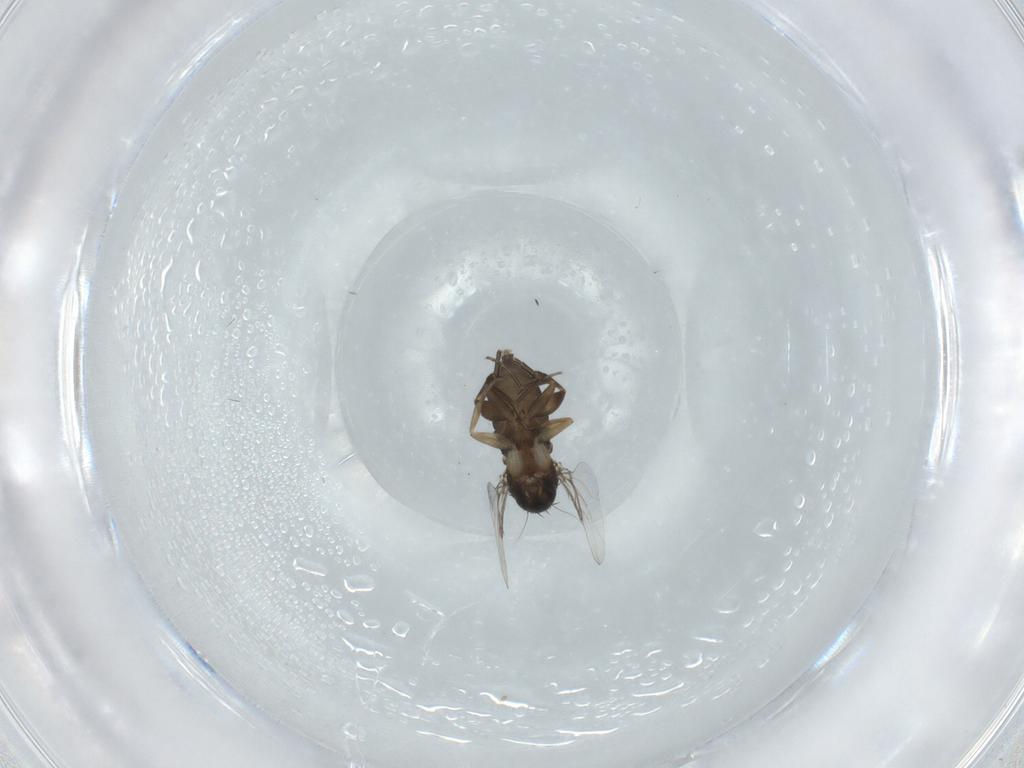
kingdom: Animalia
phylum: Arthropoda
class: Insecta
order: Diptera
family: Phoridae
